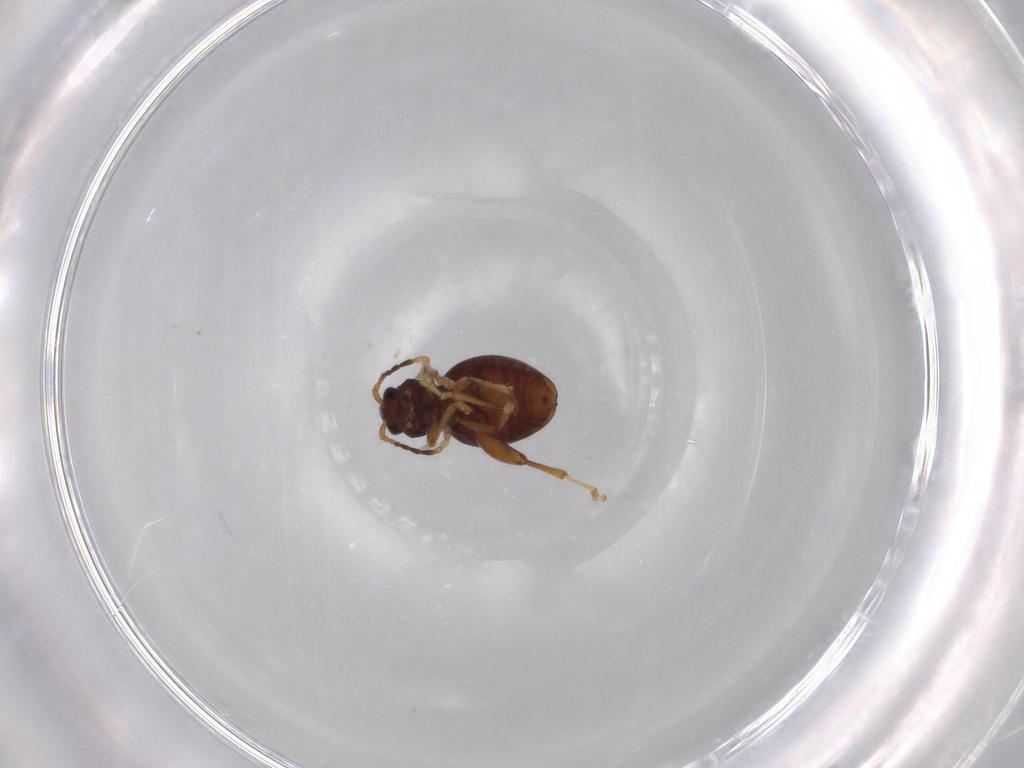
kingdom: Animalia
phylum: Arthropoda
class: Insecta
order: Coleoptera
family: Chrysomelidae
